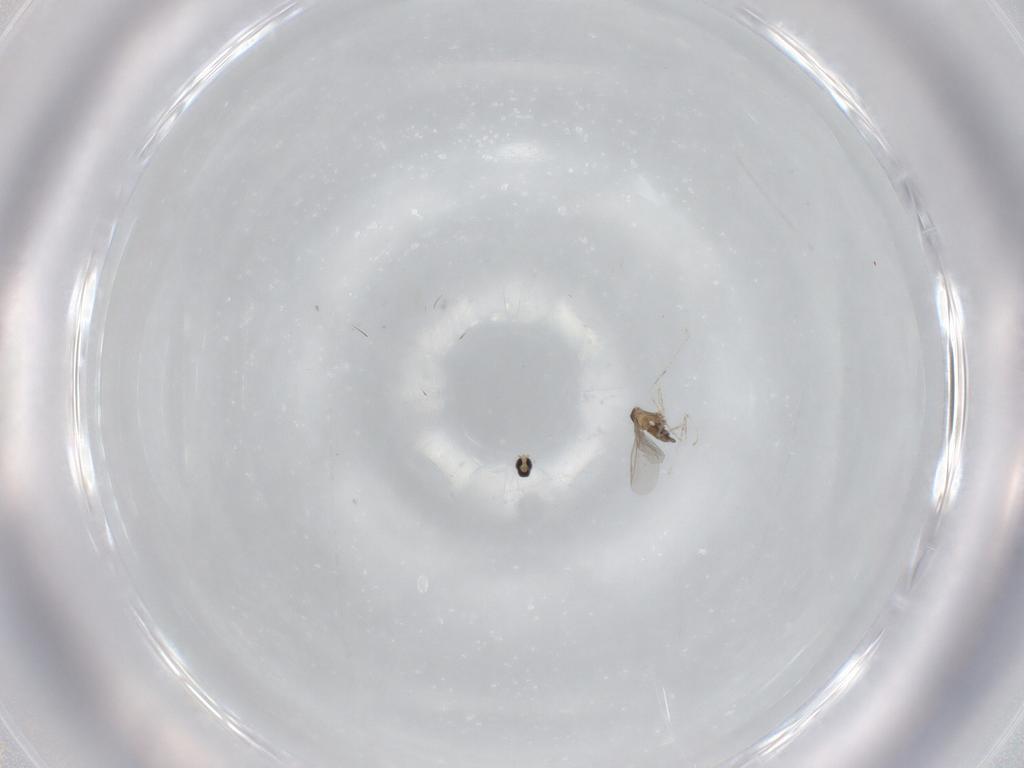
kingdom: Animalia
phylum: Arthropoda
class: Insecta
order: Diptera
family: Cecidomyiidae
